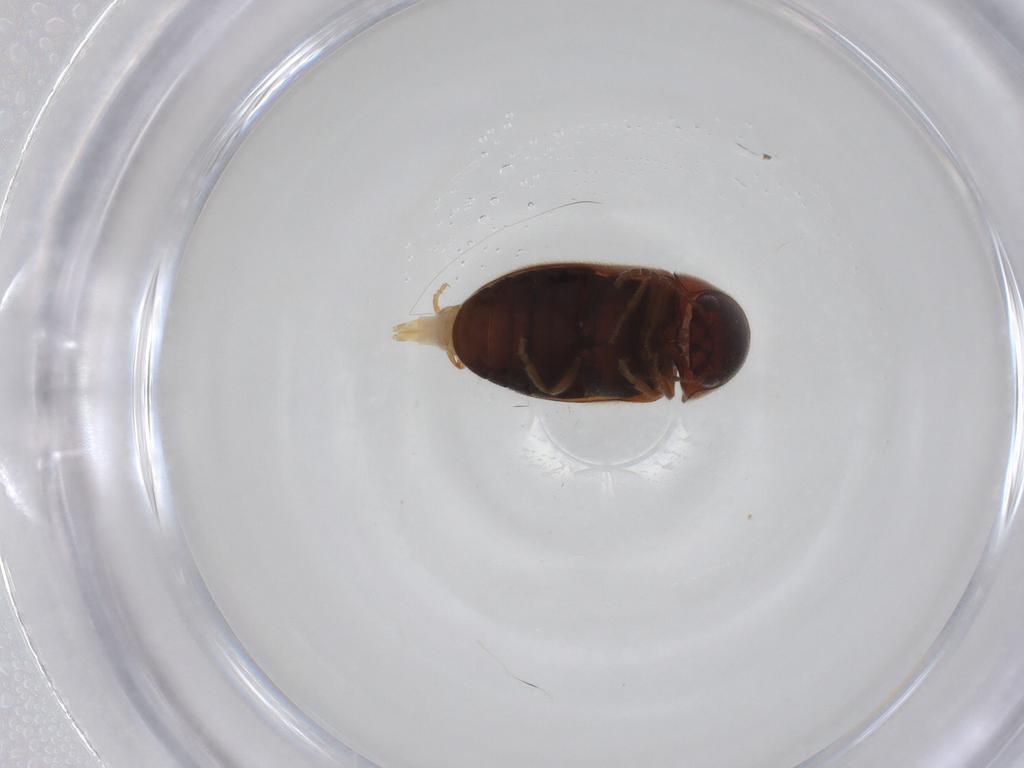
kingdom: Animalia
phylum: Arthropoda
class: Insecta
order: Coleoptera
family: Ptinidae
